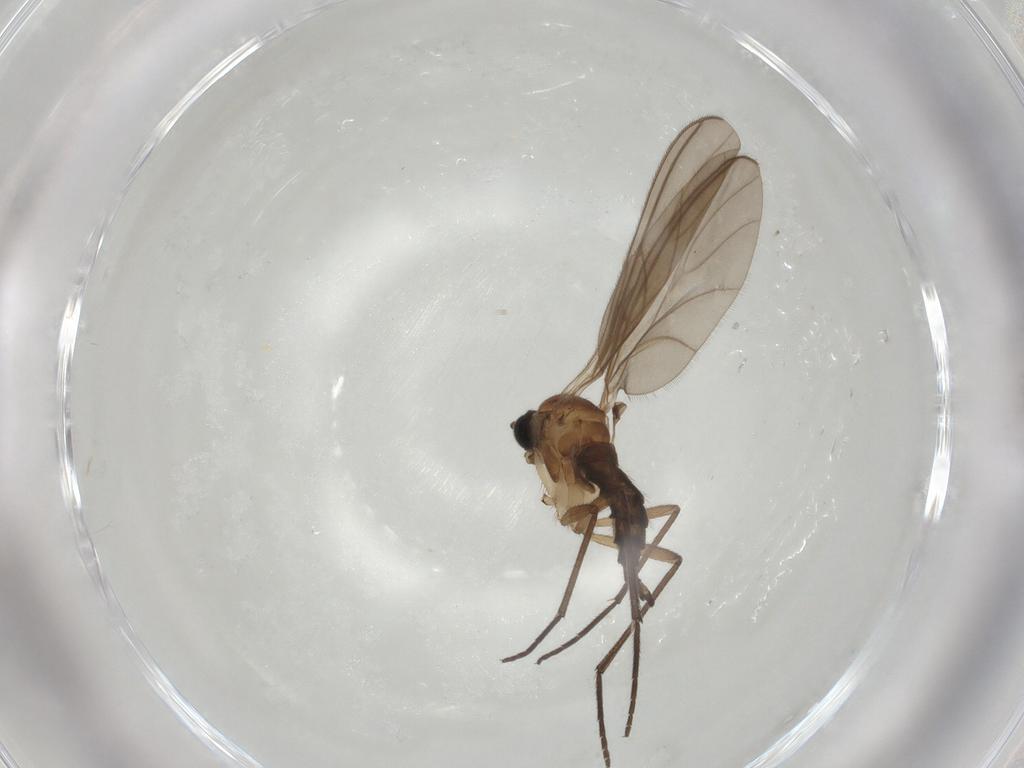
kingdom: Animalia
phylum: Arthropoda
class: Insecta
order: Diptera
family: Sciaridae
